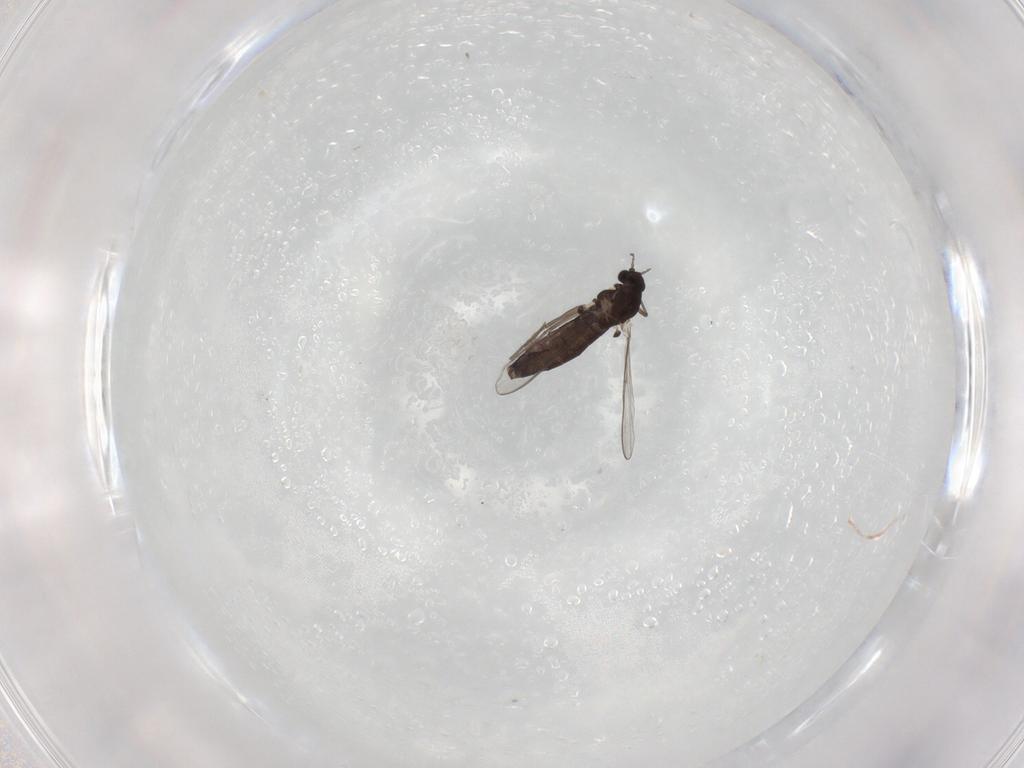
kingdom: Animalia
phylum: Arthropoda
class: Insecta
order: Diptera
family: Chironomidae
